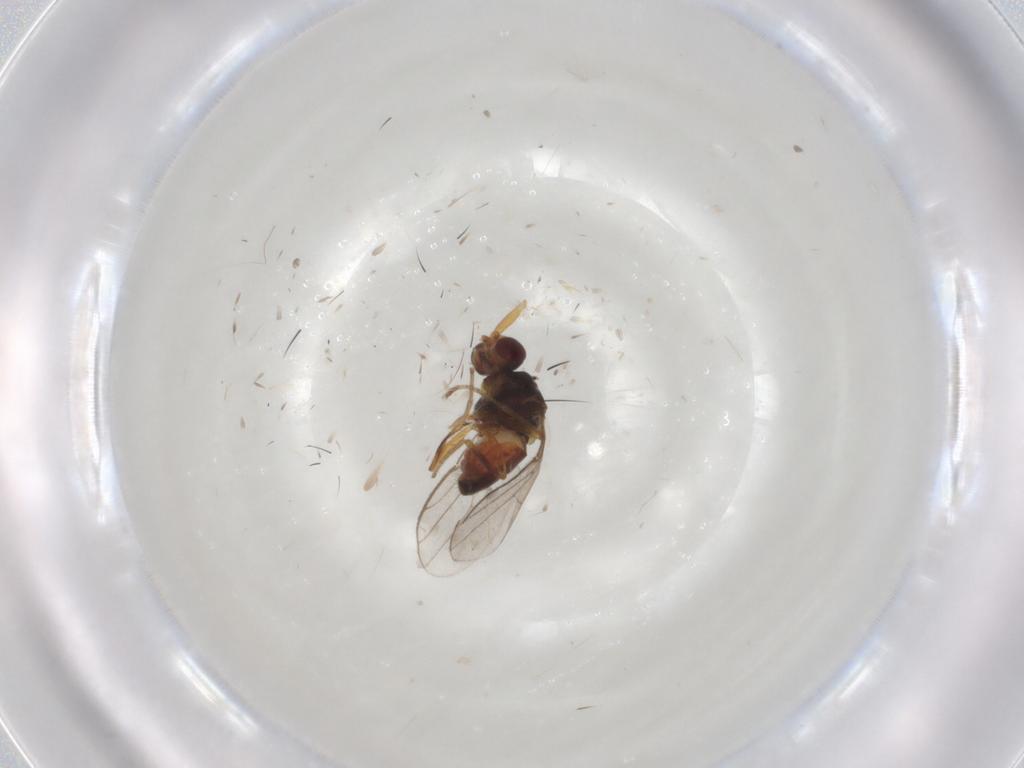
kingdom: Animalia
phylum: Arthropoda
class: Insecta
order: Diptera
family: Chloropidae
